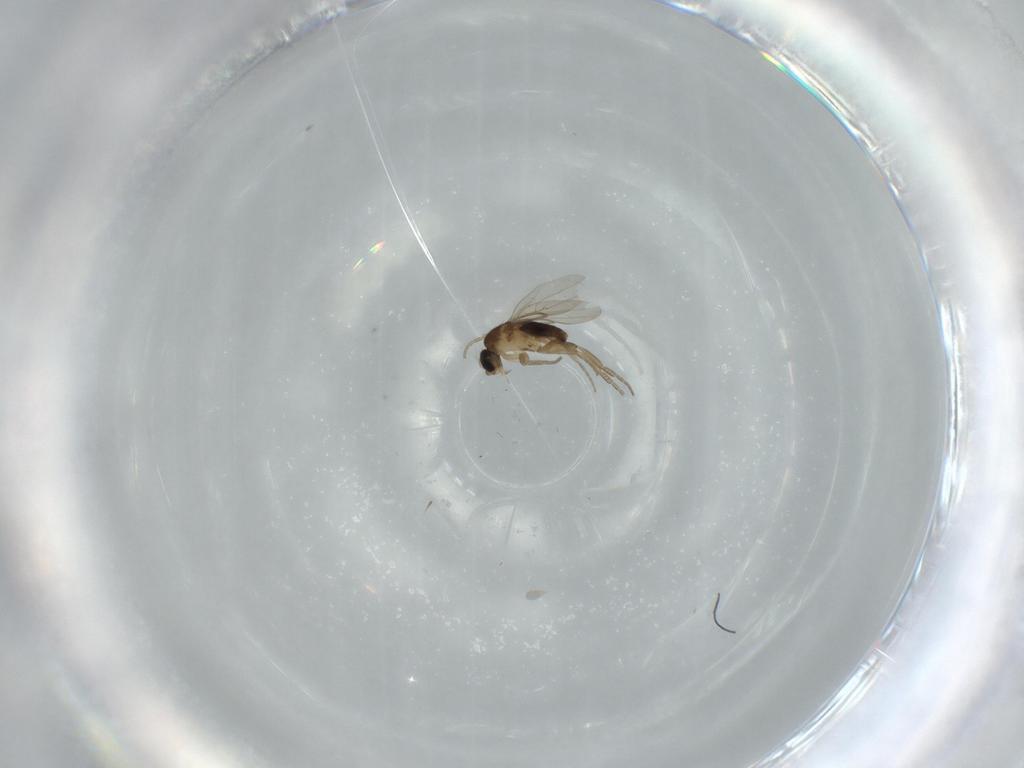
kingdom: Animalia
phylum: Arthropoda
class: Insecta
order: Diptera
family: Phoridae
